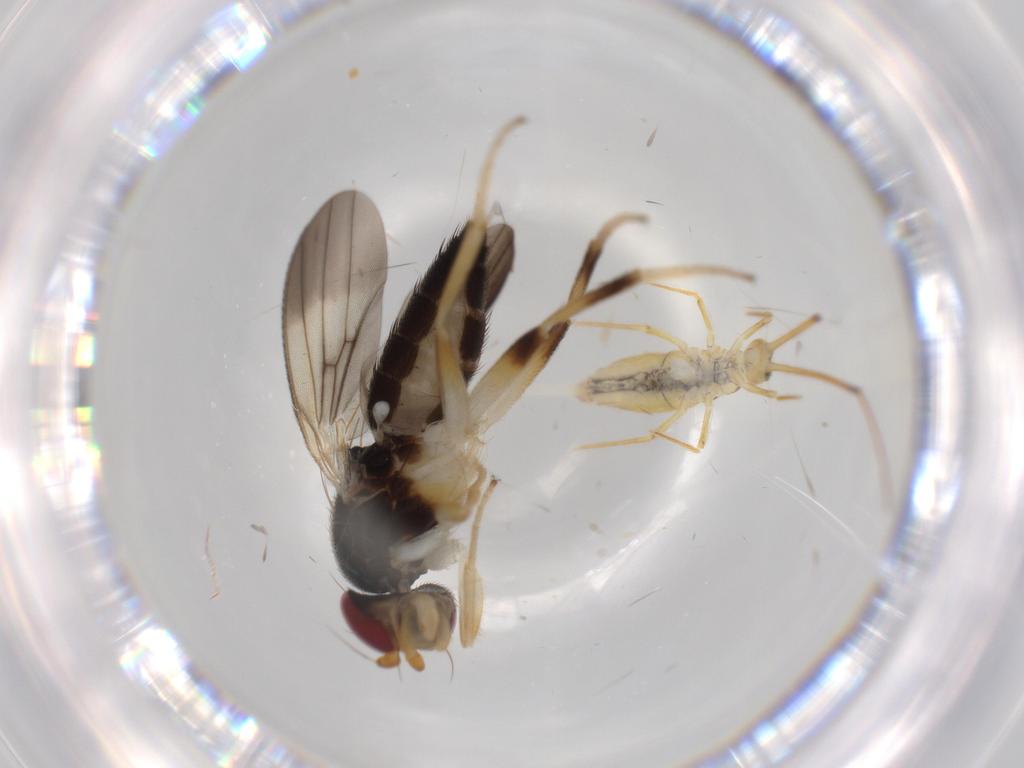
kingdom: Animalia
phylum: Arthropoda
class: Collembola
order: Entomobryomorpha
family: Entomobryidae
